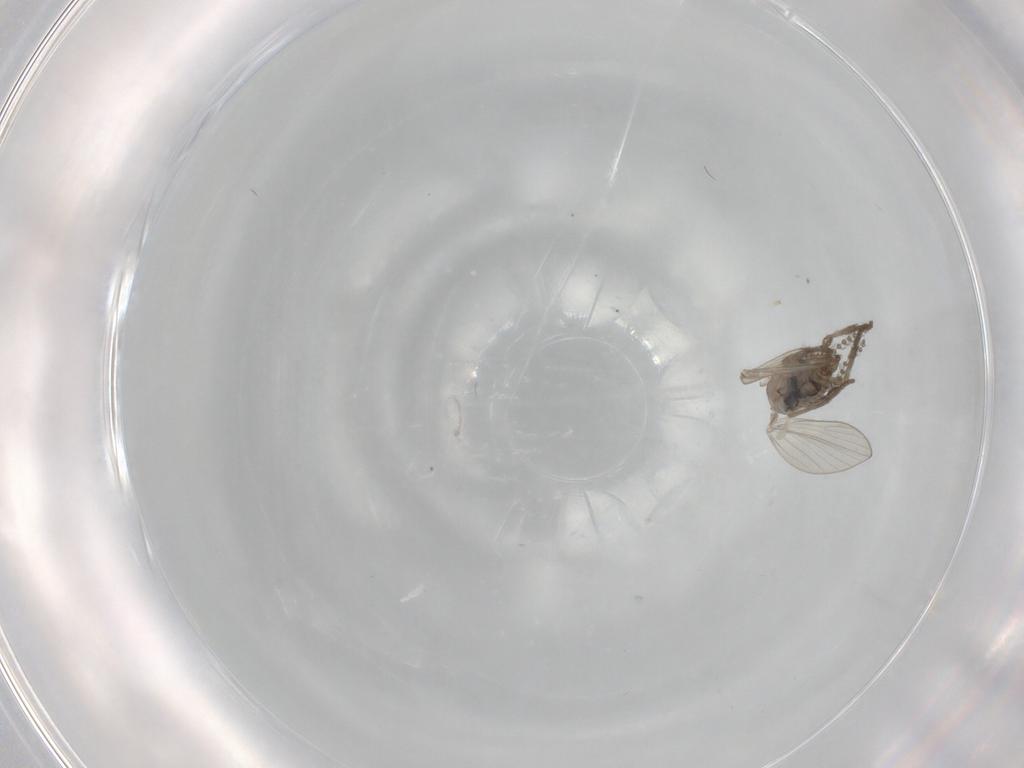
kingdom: Animalia
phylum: Arthropoda
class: Insecta
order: Diptera
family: Psychodidae
